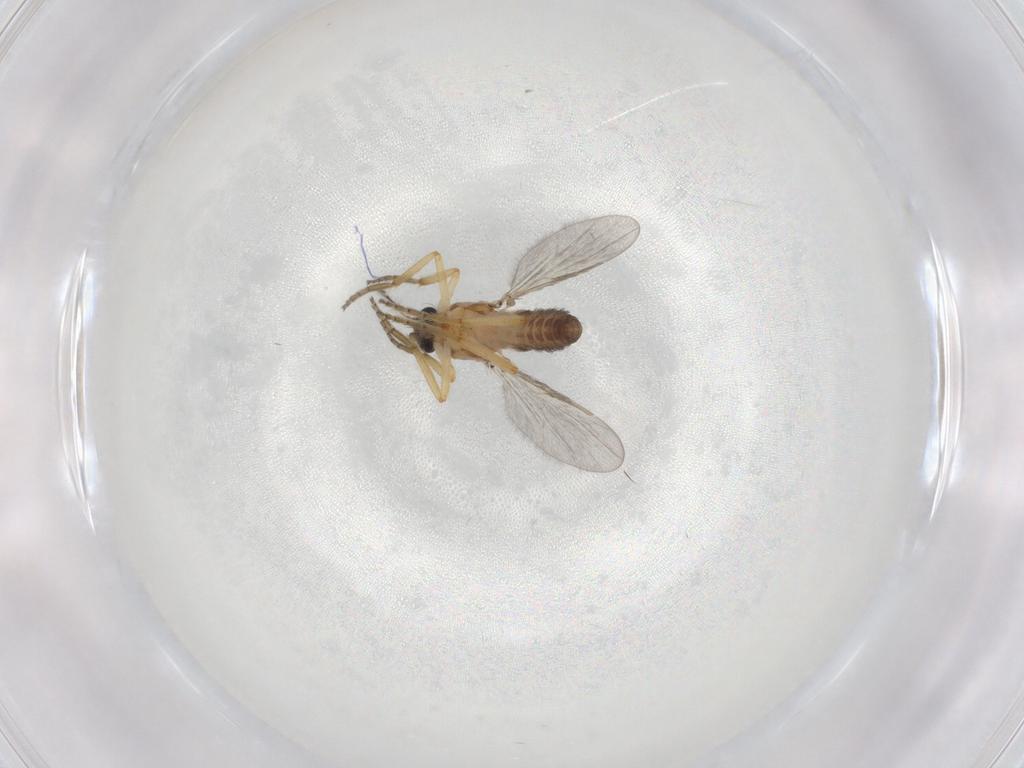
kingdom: Animalia
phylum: Arthropoda
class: Insecta
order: Diptera
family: Ceratopogonidae
